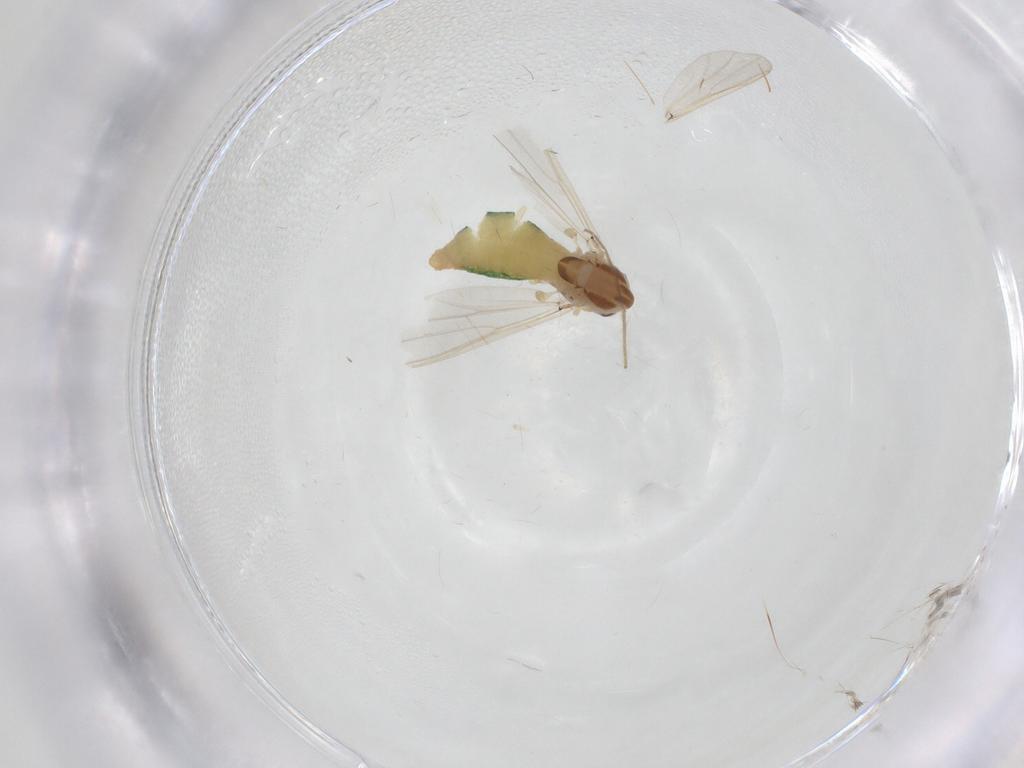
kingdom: Animalia
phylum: Arthropoda
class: Insecta
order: Diptera
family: Chironomidae
